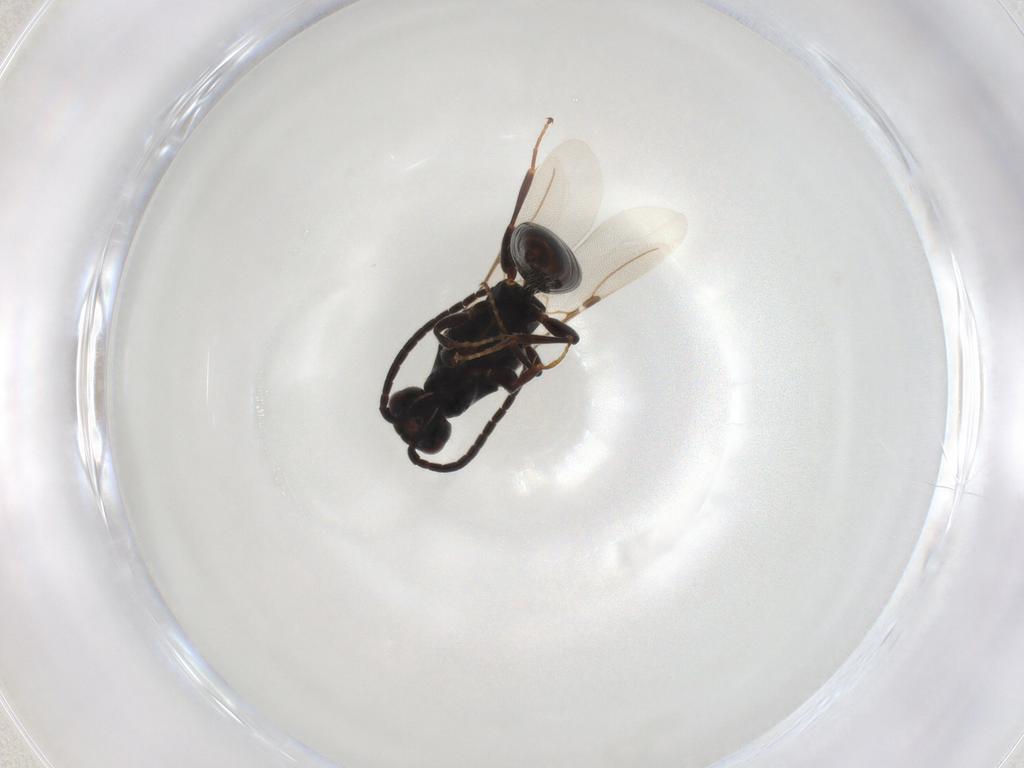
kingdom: Animalia
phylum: Arthropoda
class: Insecta
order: Hymenoptera
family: Bethylidae
